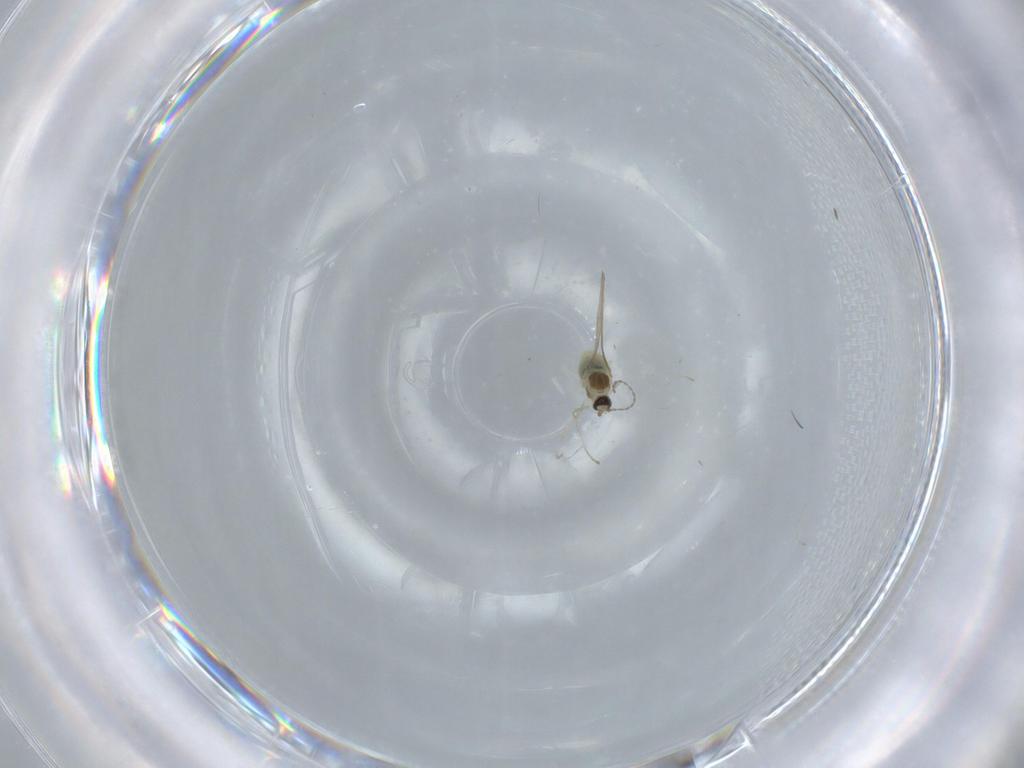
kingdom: Animalia
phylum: Arthropoda
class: Insecta
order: Diptera
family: Cecidomyiidae
